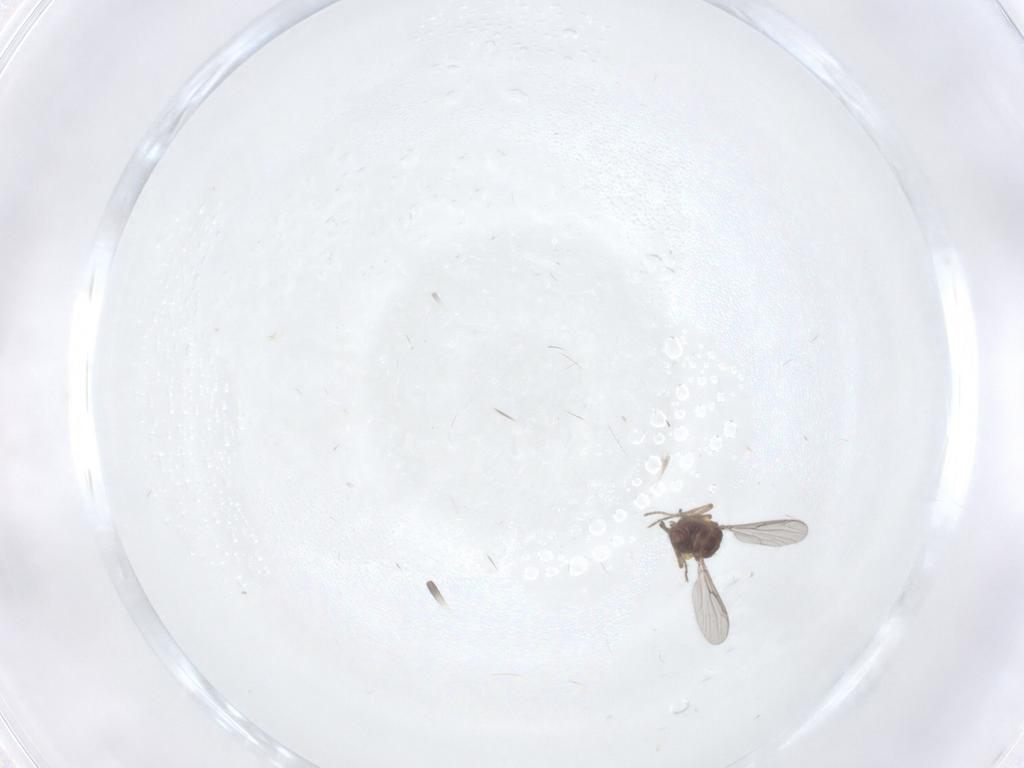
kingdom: Animalia
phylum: Arthropoda
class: Insecta
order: Diptera
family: Ceratopogonidae
